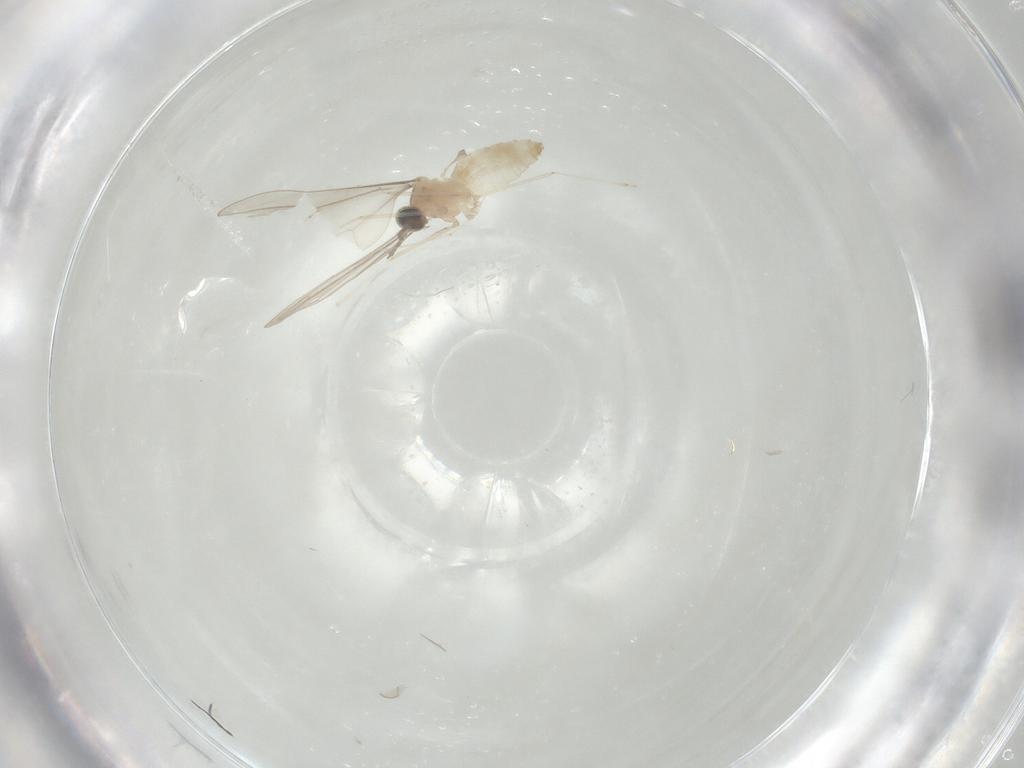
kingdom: Animalia
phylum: Arthropoda
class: Insecta
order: Diptera
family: Cecidomyiidae
